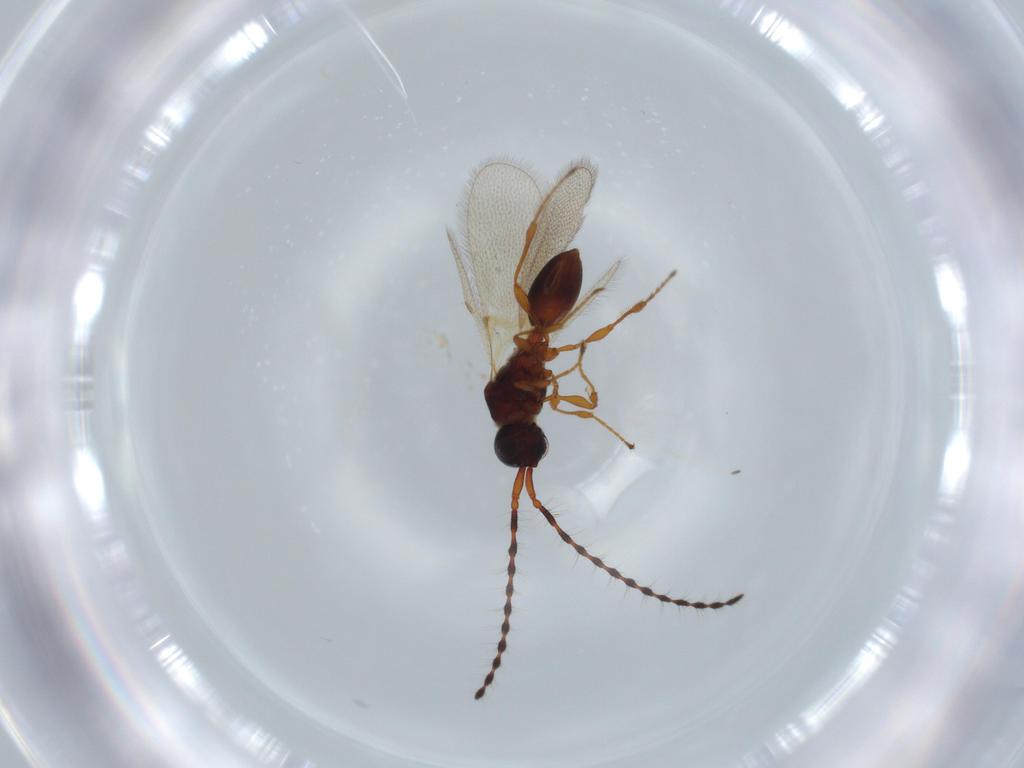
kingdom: Animalia
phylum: Arthropoda
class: Insecta
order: Hymenoptera
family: Diapriidae
